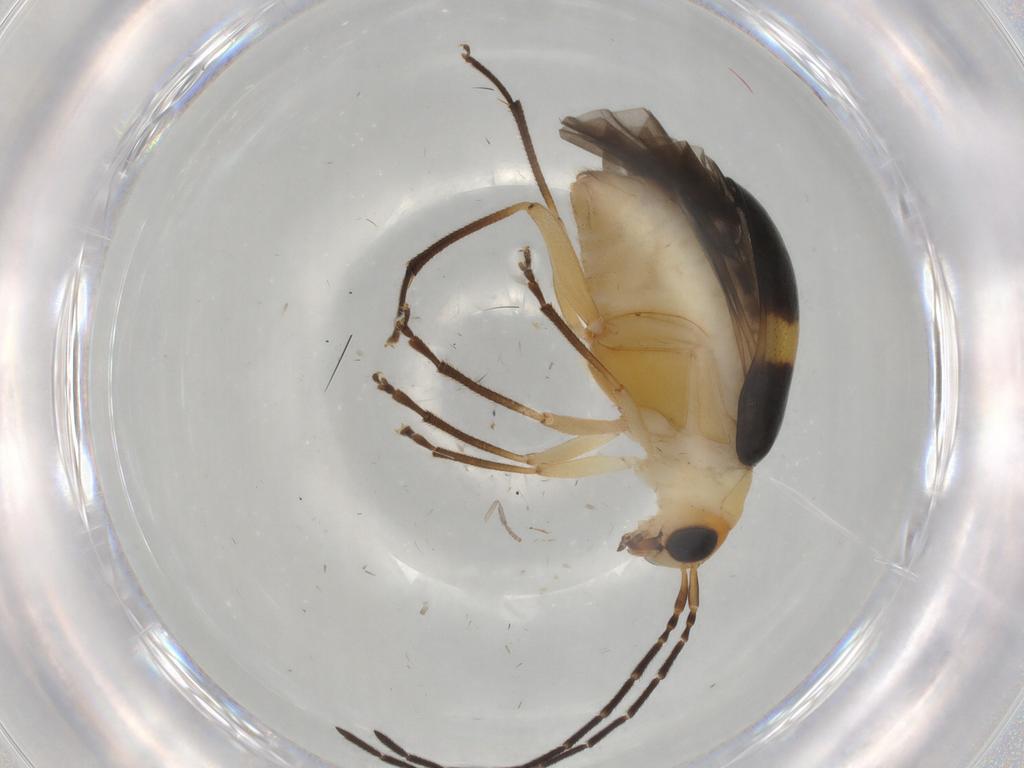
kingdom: Animalia
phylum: Arthropoda
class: Insecta
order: Coleoptera
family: Chrysomelidae
